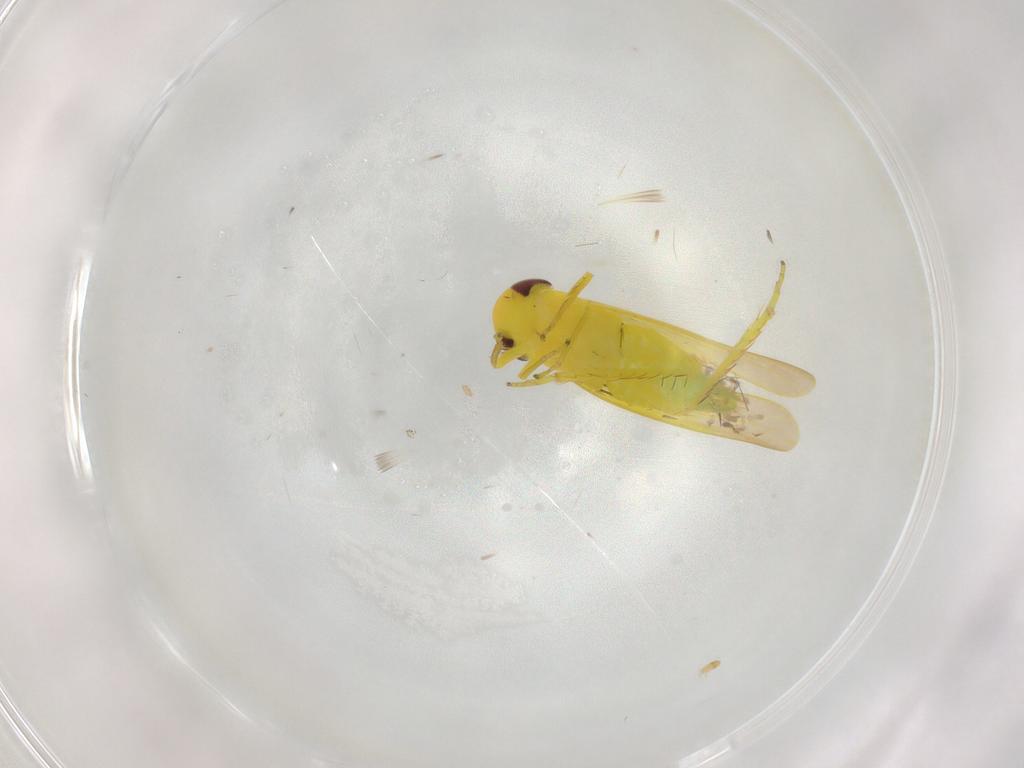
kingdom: Animalia
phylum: Arthropoda
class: Insecta
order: Hemiptera
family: Cicadellidae
